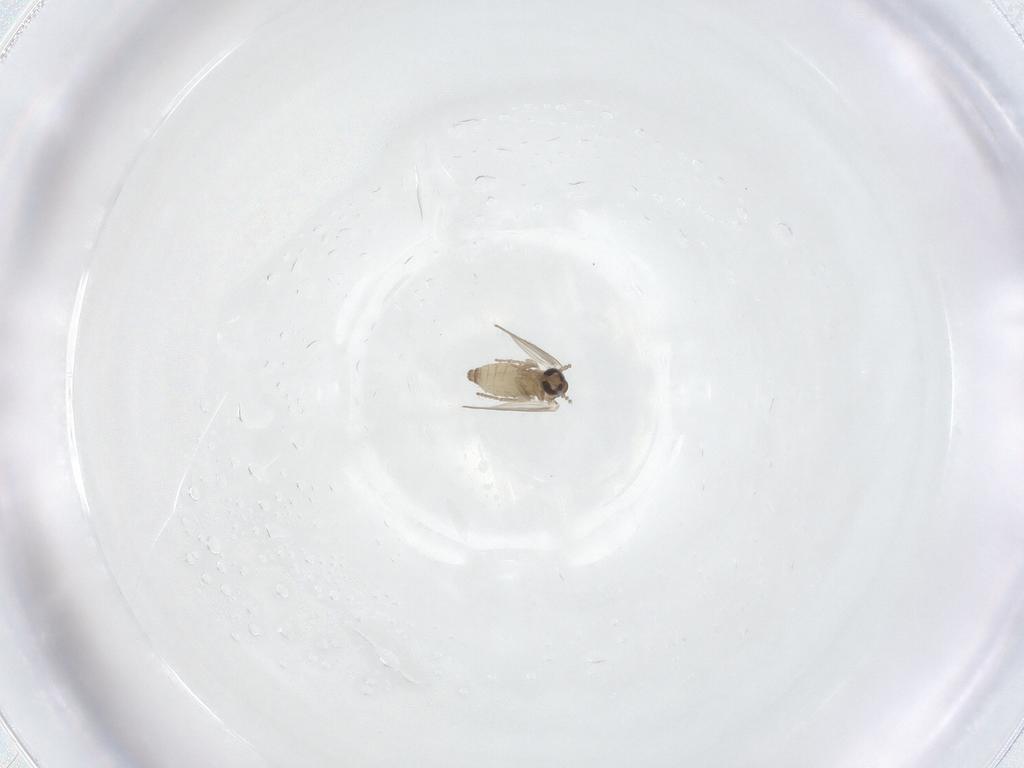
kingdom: Animalia
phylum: Arthropoda
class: Insecta
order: Diptera
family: Psychodidae
